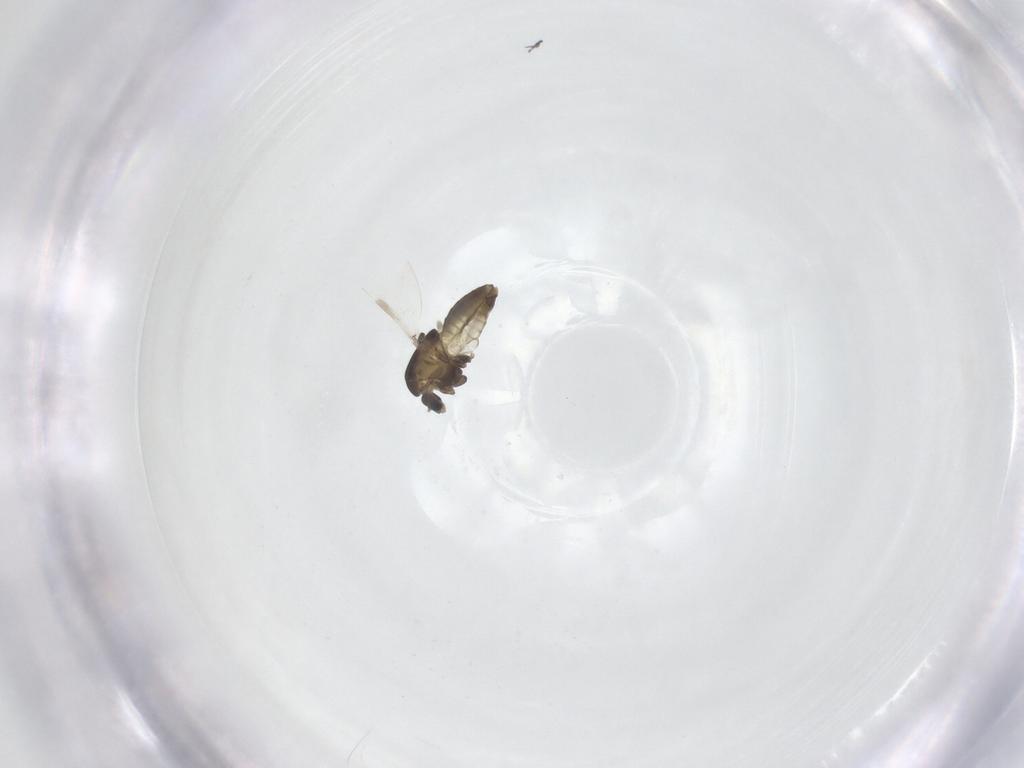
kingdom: Animalia
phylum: Arthropoda
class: Insecta
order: Diptera
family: Chironomidae
